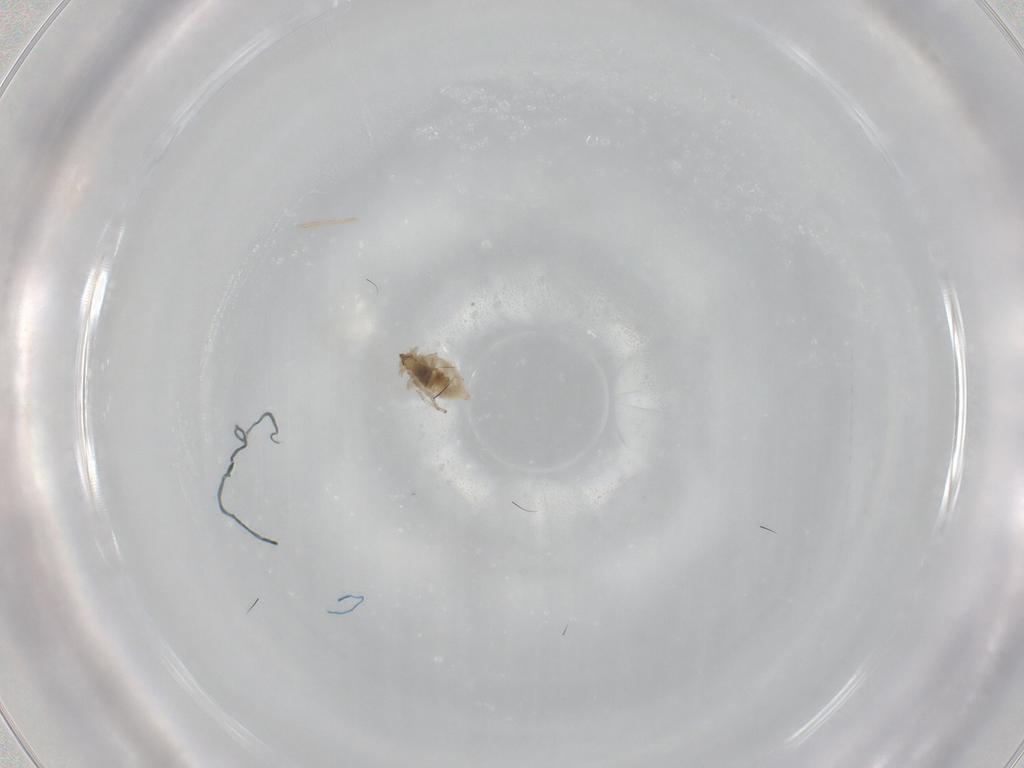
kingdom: Animalia
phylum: Arthropoda
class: Insecta
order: Neuroptera
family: Coniopterygidae
